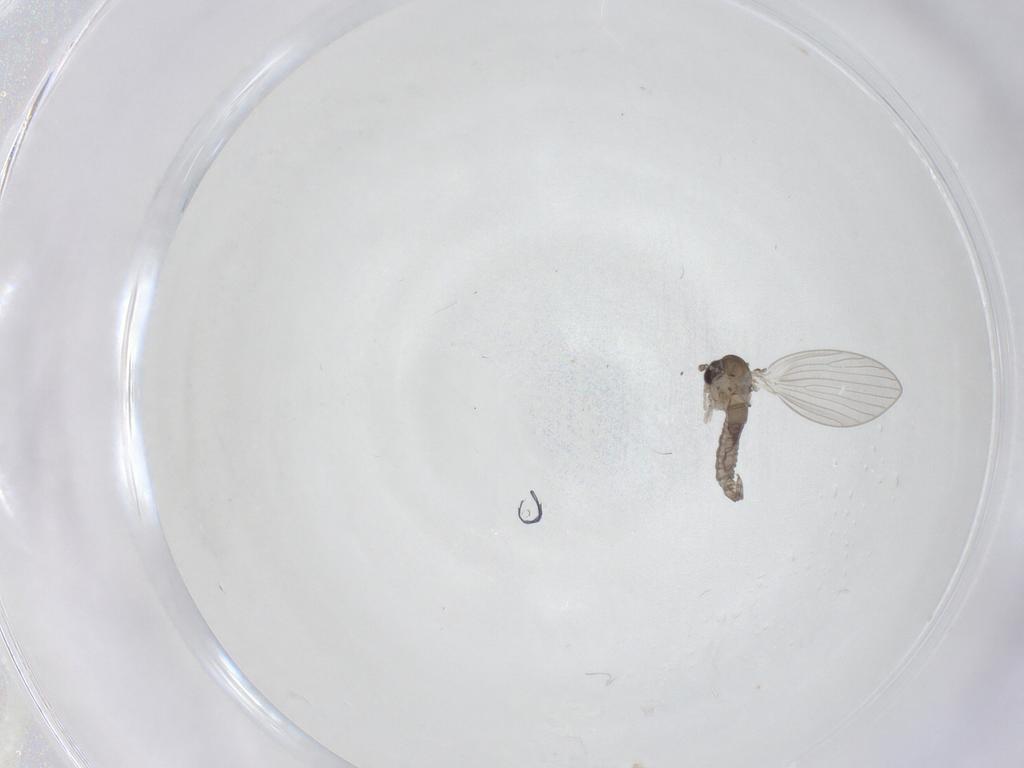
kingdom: Animalia
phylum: Arthropoda
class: Insecta
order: Diptera
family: Psychodidae
